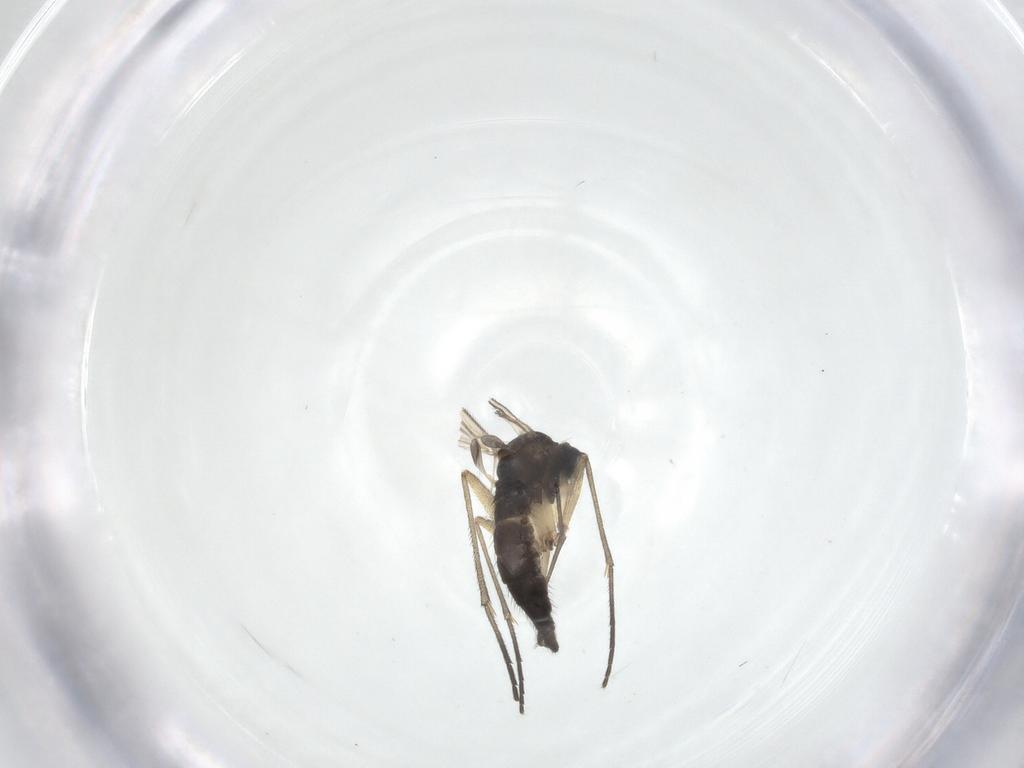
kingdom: Animalia
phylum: Arthropoda
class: Insecta
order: Diptera
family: Sciaridae
